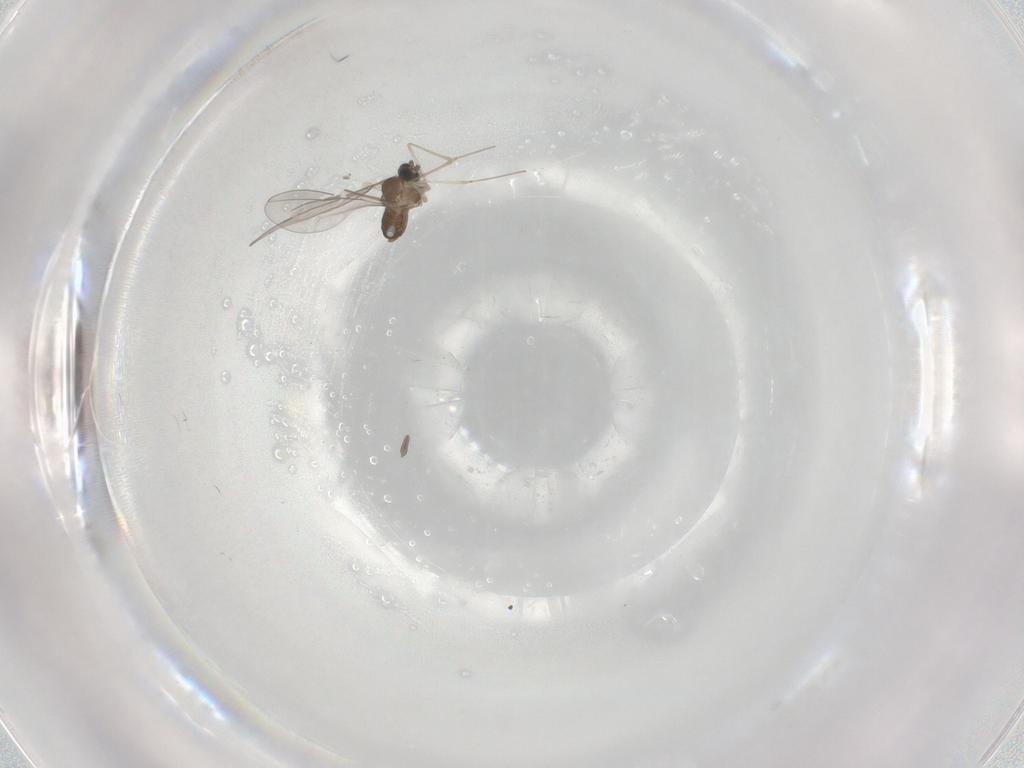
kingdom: Animalia
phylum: Arthropoda
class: Insecta
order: Diptera
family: Cecidomyiidae
